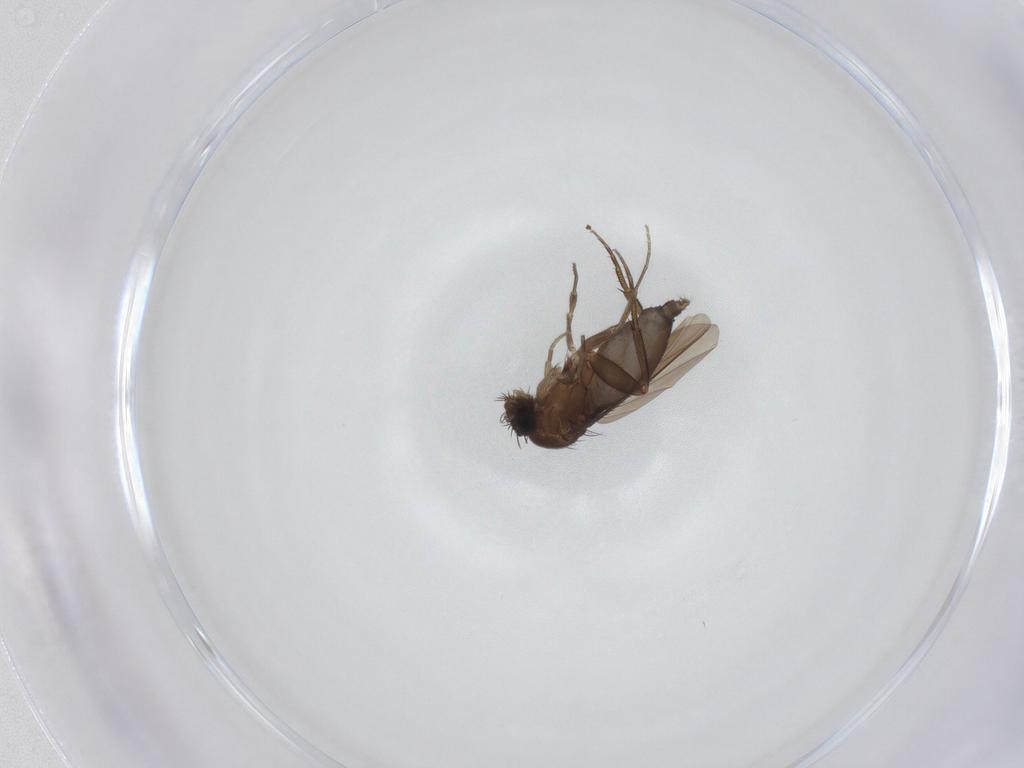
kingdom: Animalia
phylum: Arthropoda
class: Insecta
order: Diptera
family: Phoridae
